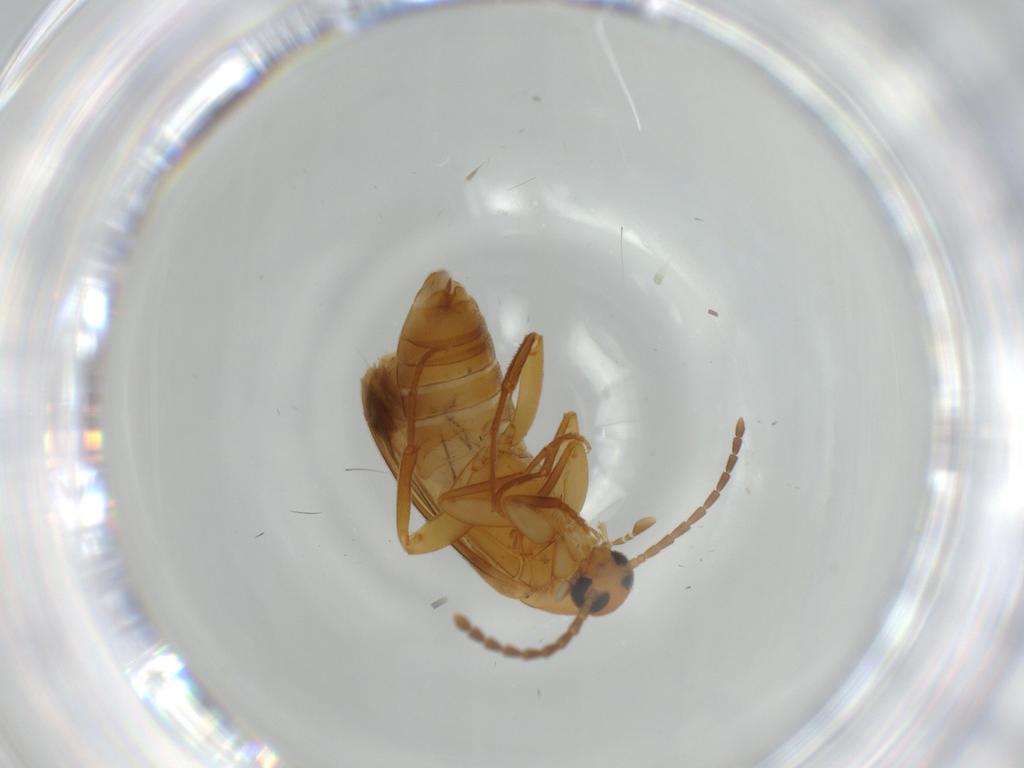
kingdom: Animalia
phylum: Arthropoda
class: Insecta
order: Coleoptera
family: Scraptiidae
